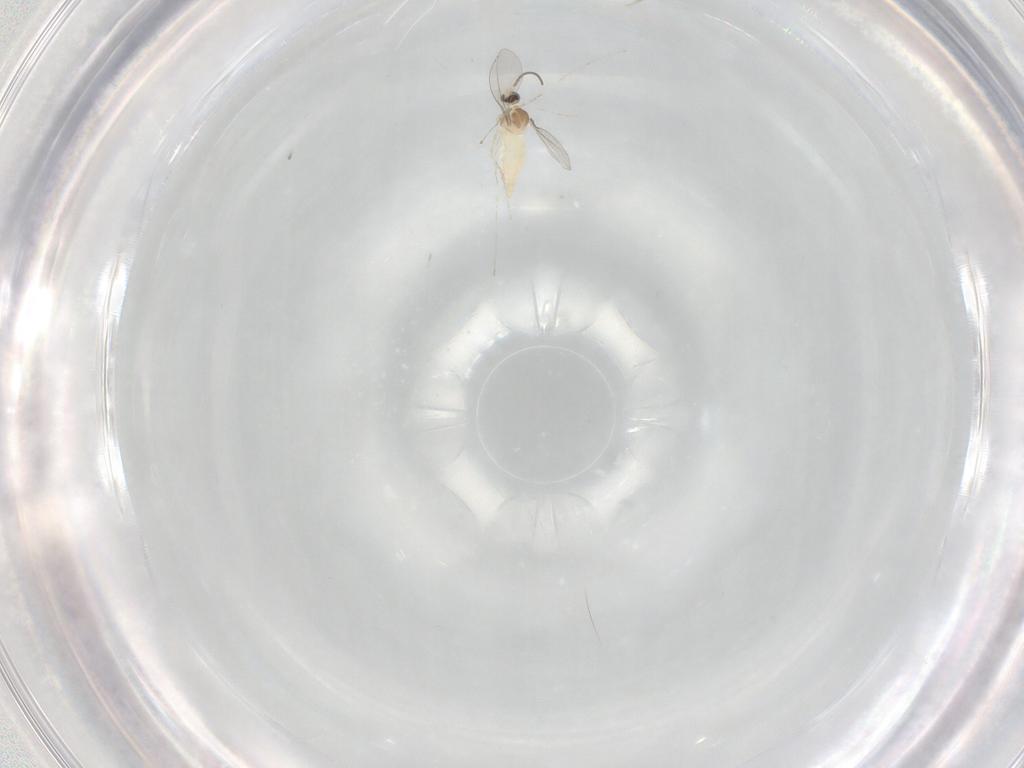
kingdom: Animalia
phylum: Arthropoda
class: Insecta
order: Diptera
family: Cecidomyiidae
